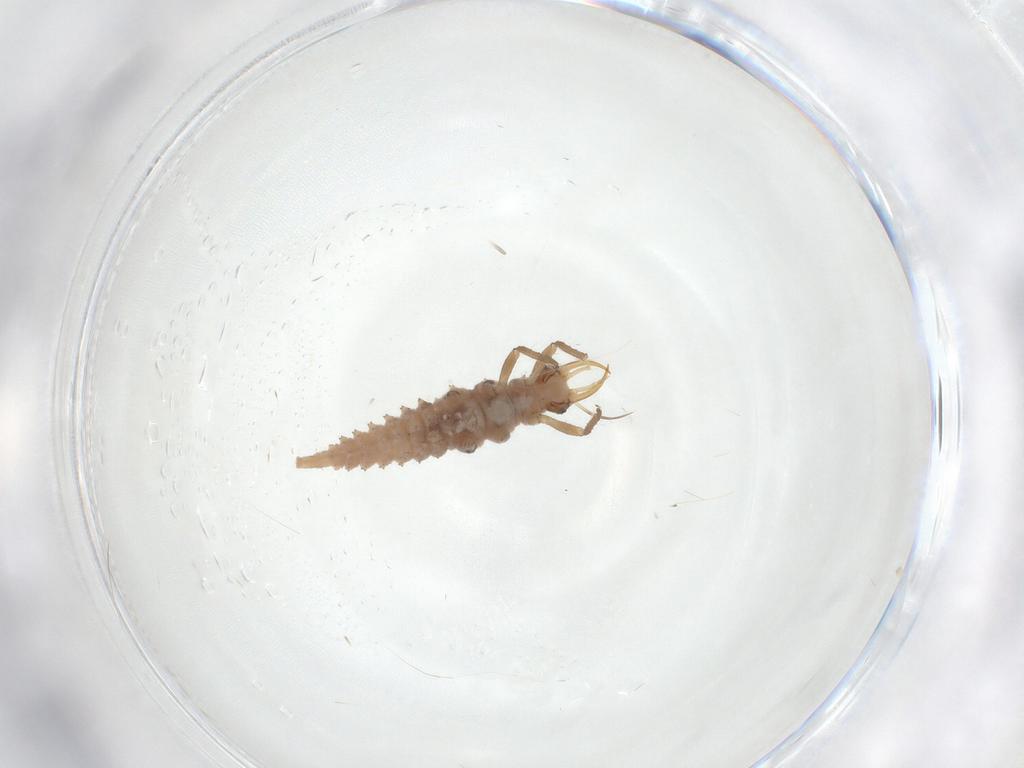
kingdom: Animalia
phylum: Arthropoda
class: Insecta
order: Neuroptera
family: Chrysopidae
